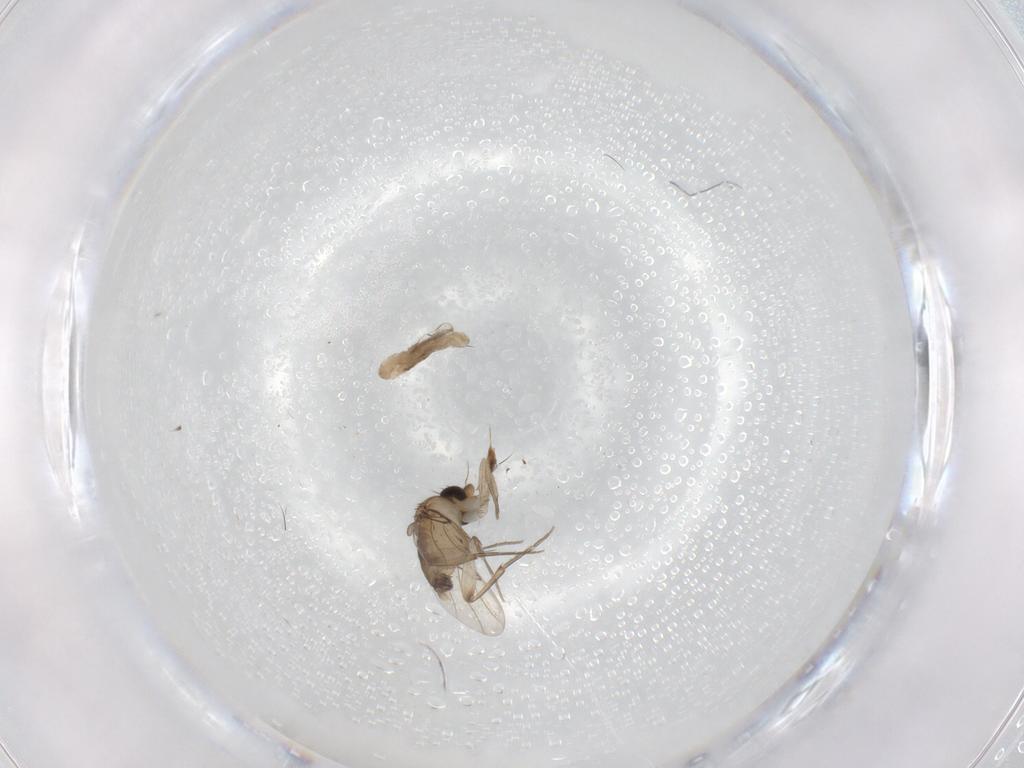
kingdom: Animalia
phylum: Arthropoda
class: Insecta
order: Diptera
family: Phoridae
